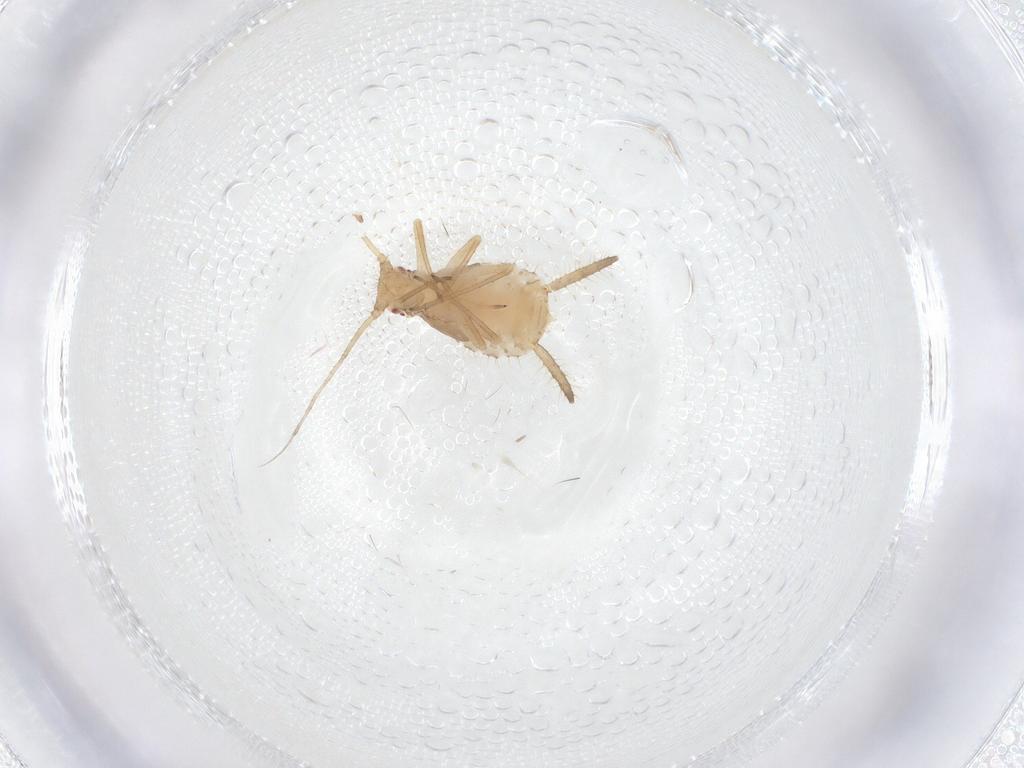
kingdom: Animalia
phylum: Arthropoda
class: Insecta
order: Hemiptera
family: Aphididae
